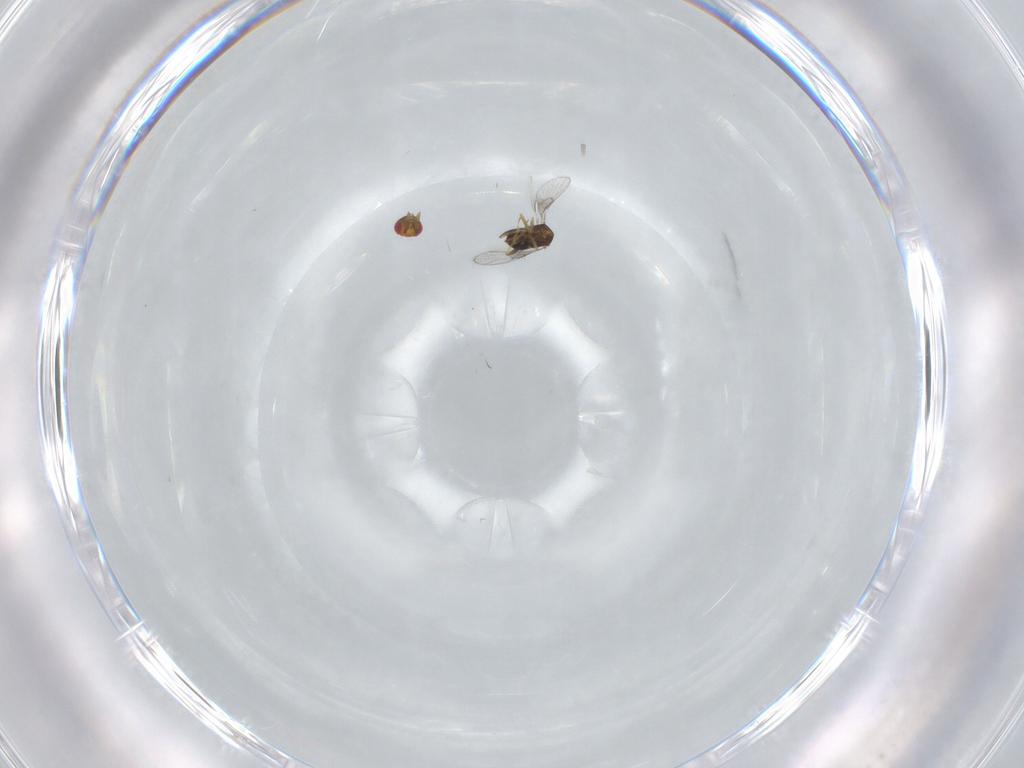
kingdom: Animalia
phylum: Arthropoda
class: Insecta
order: Hymenoptera
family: Trichogrammatidae
